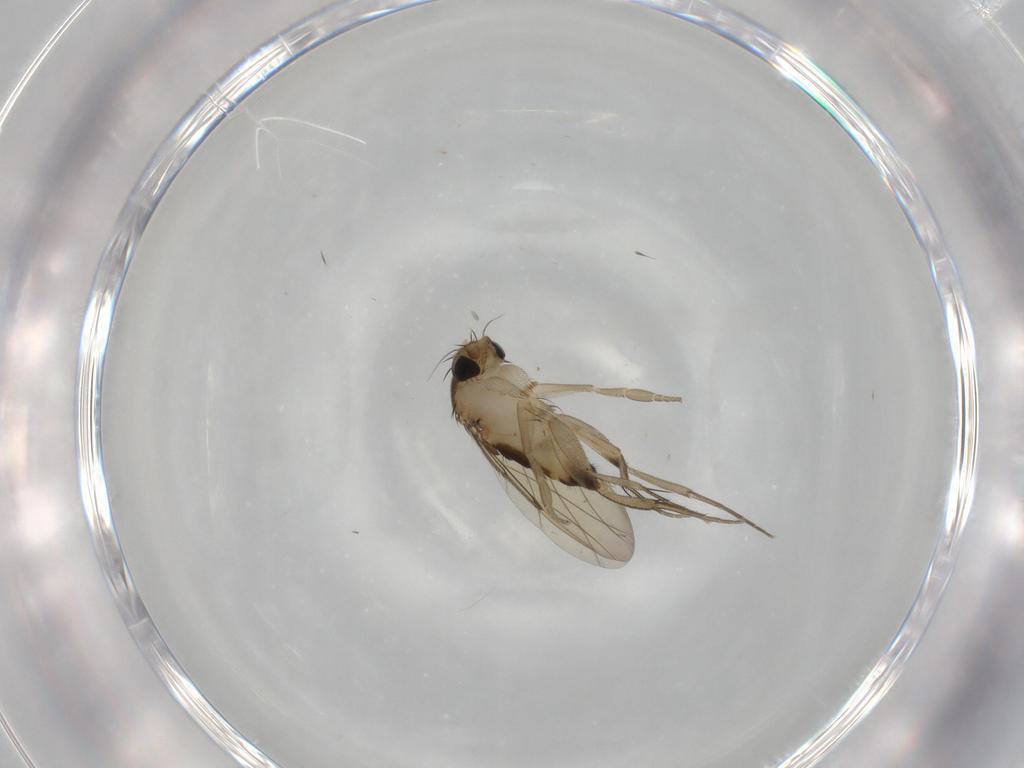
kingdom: Animalia
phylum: Arthropoda
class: Insecta
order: Diptera
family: Phoridae
